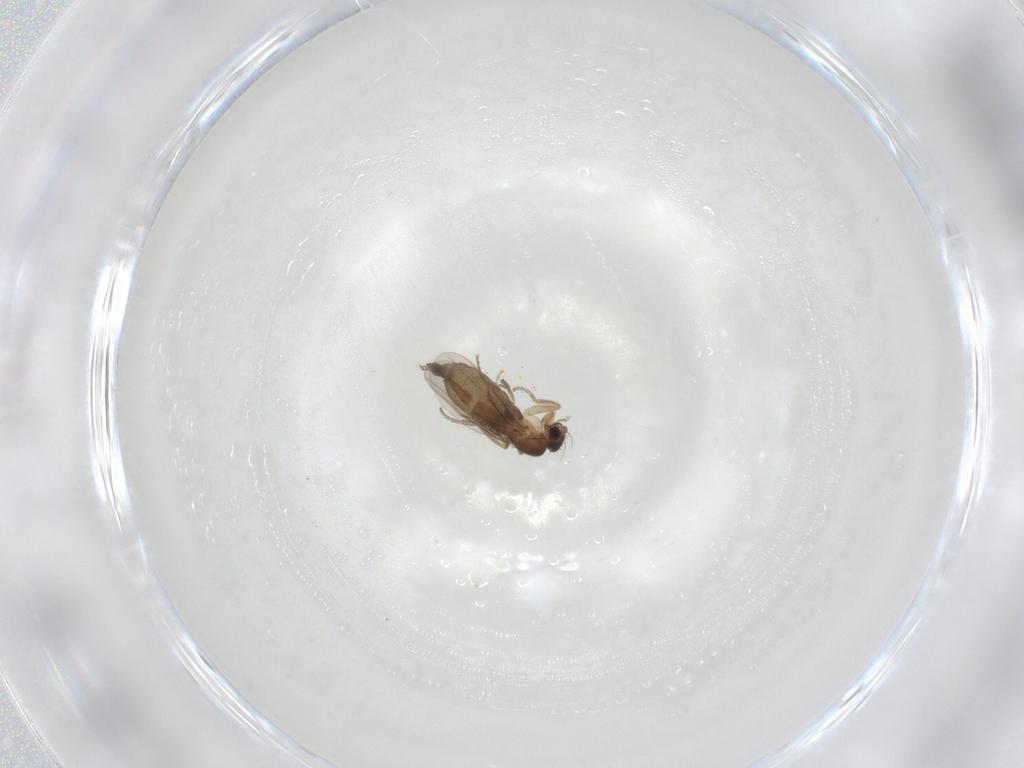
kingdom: Animalia
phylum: Arthropoda
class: Insecta
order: Diptera
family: Phoridae
